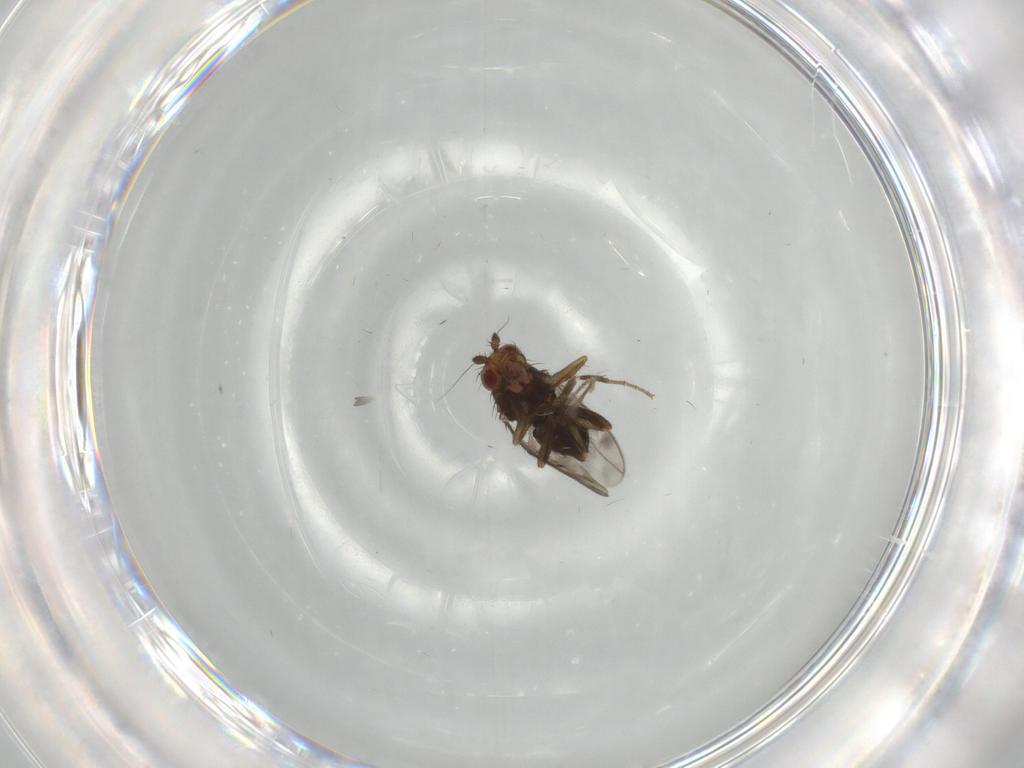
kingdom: Animalia
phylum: Arthropoda
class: Insecta
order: Diptera
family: Sphaeroceridae
